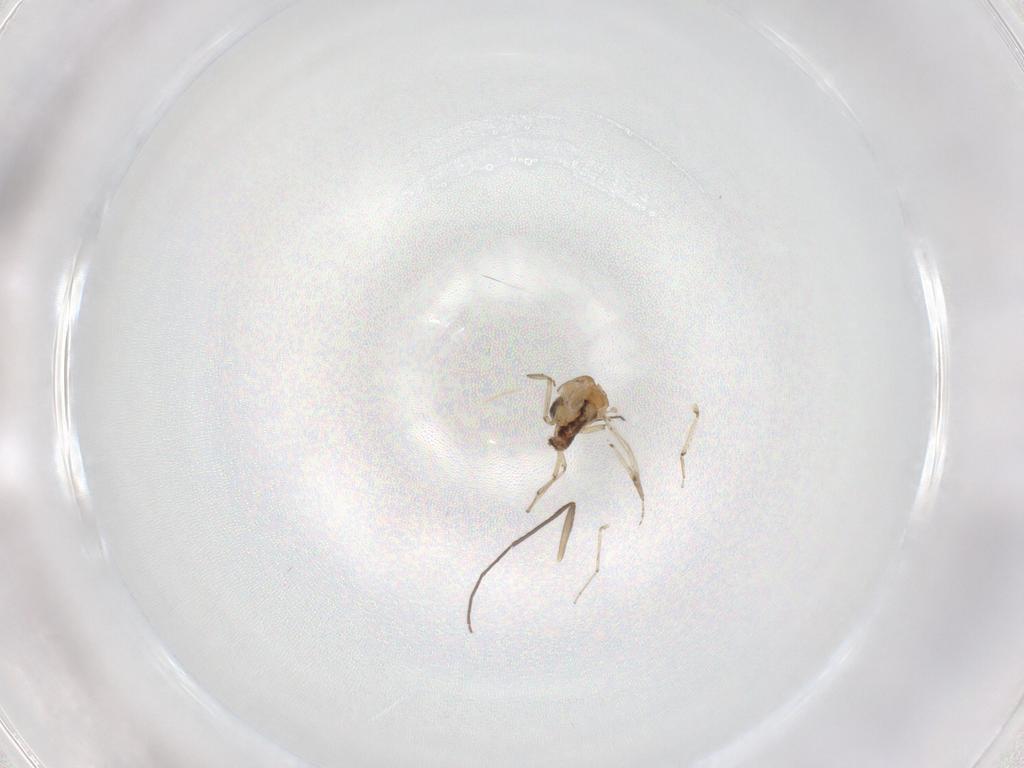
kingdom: Animalia
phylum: Arthropoda
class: Insecta
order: Diptera
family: Ceratopogonidae
